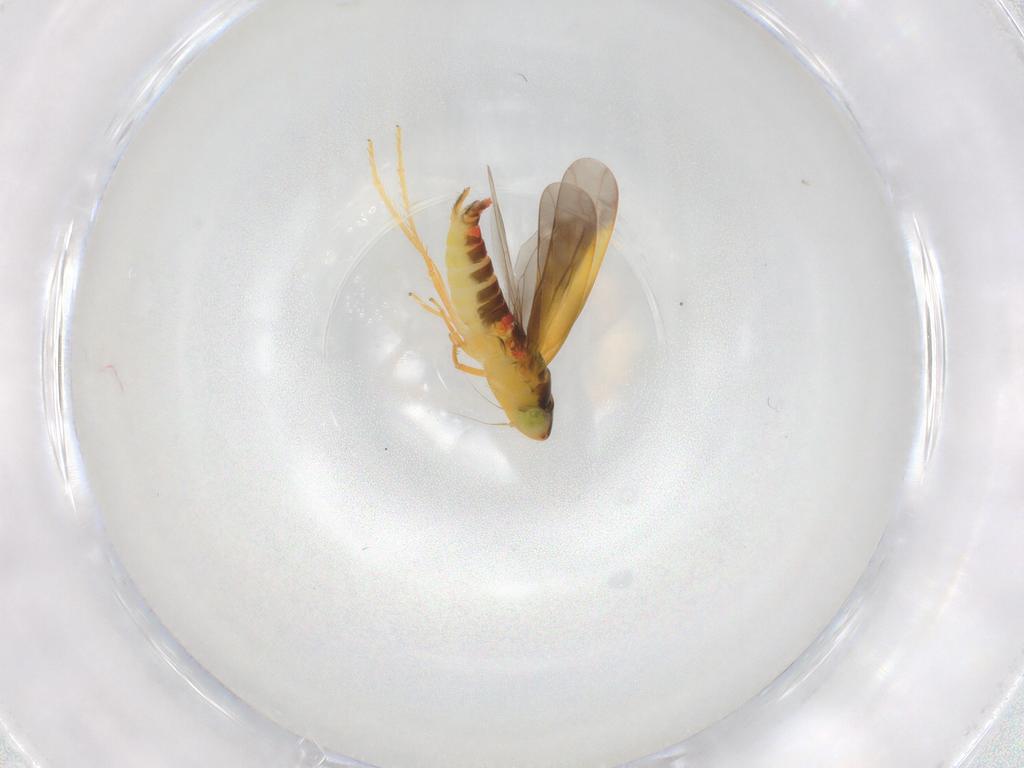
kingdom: Animalia
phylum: Arthropoda
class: Insecta
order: Hemiptera
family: Cicadellidae
